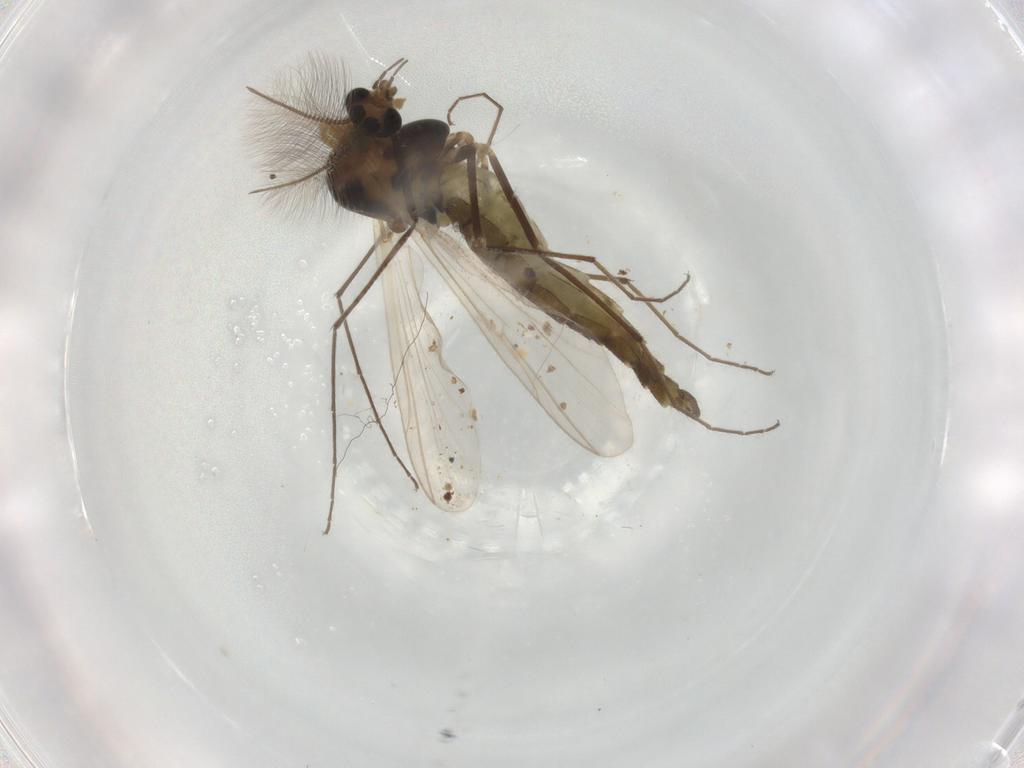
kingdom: Animalia
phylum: Arthropoda
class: Insecta
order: Diptera
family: Chironomidae
